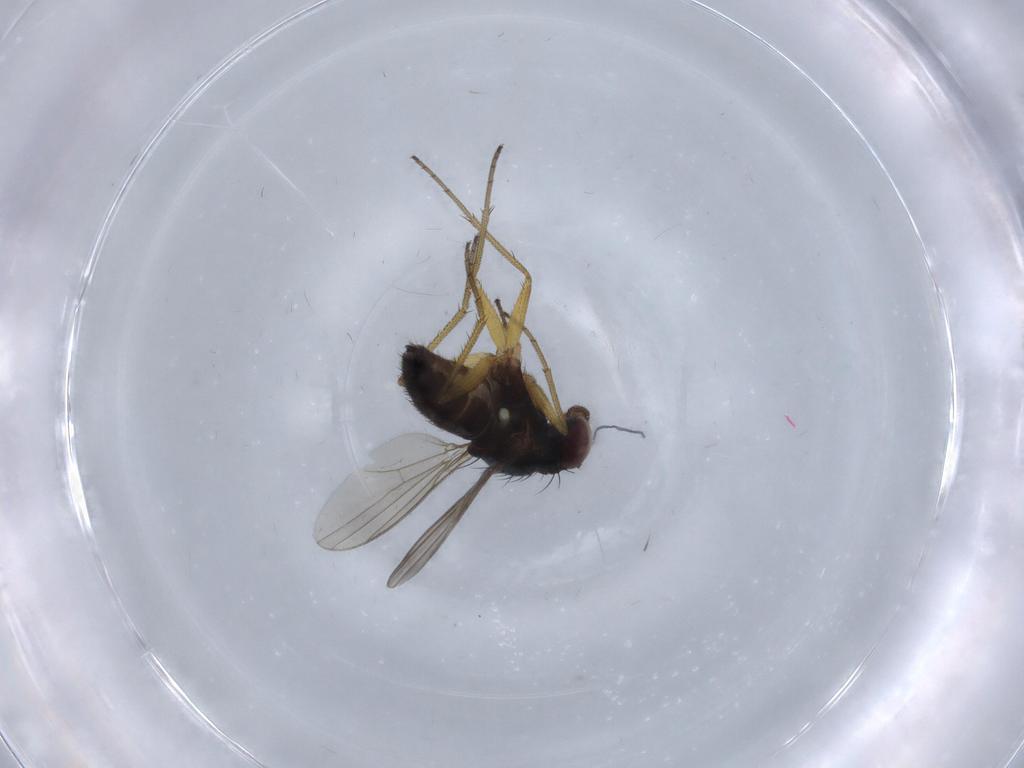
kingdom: Animalia
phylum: Arthropoda
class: Insecta
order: Diptera
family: Dolichopodidae
